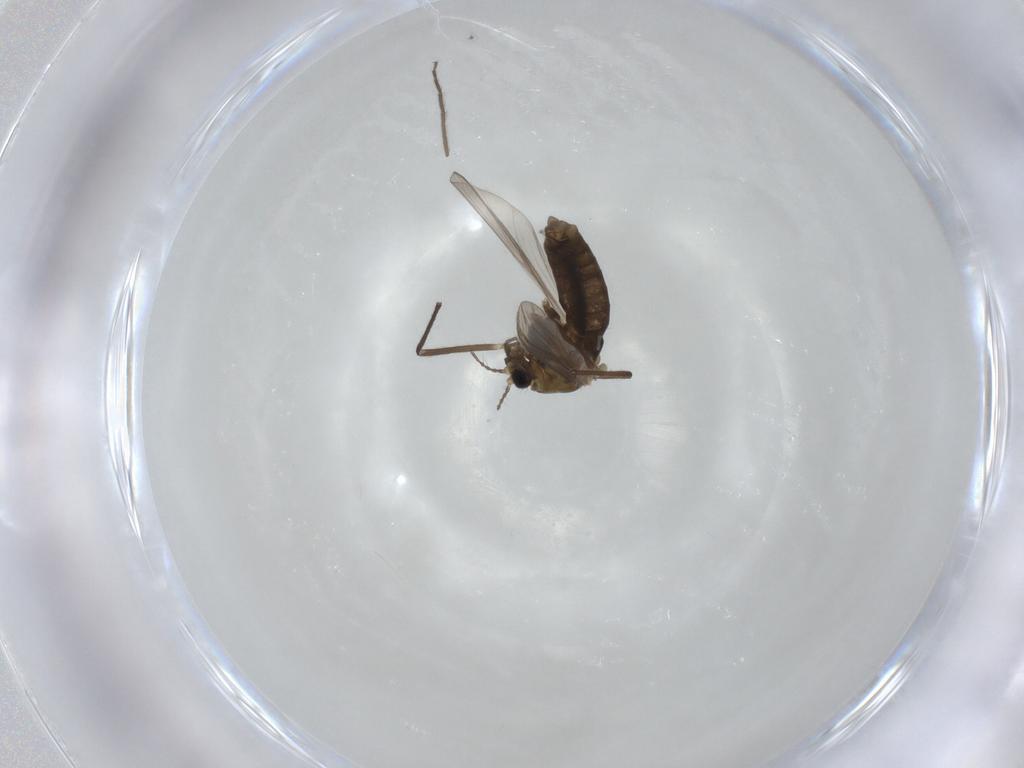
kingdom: Animalia
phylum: Arthropoda
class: Insecta
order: Diptera
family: Chironomidae
